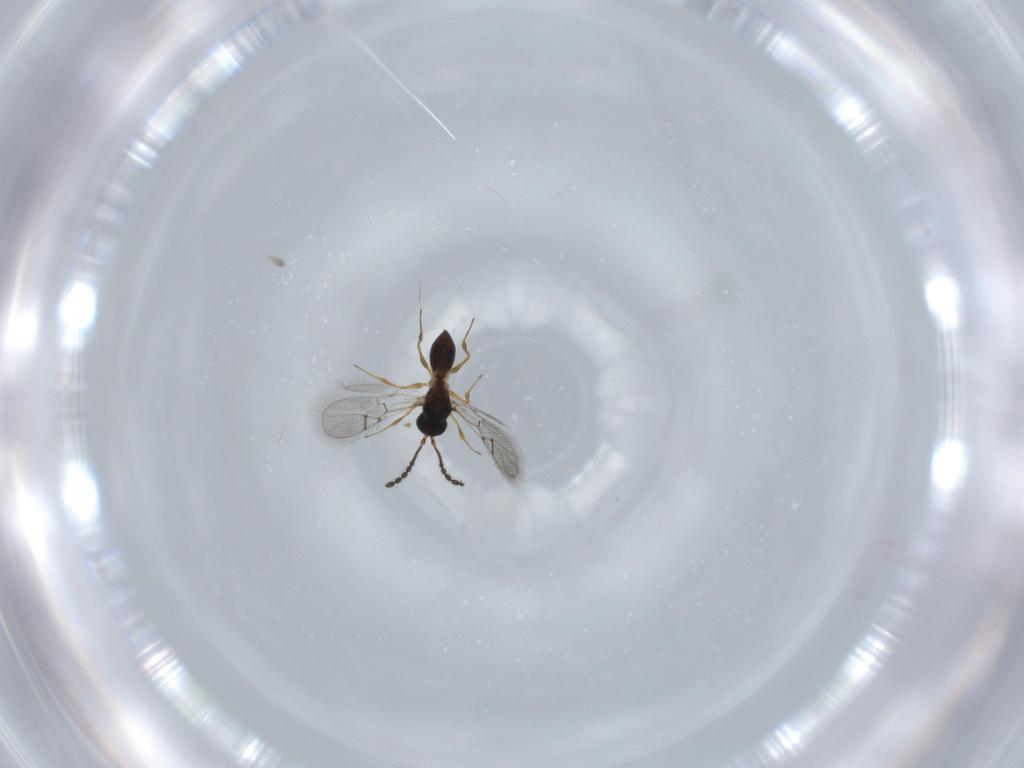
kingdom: Animalia
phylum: Arthropoda
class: Insecta
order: Hymenoptera
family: Figitidae
